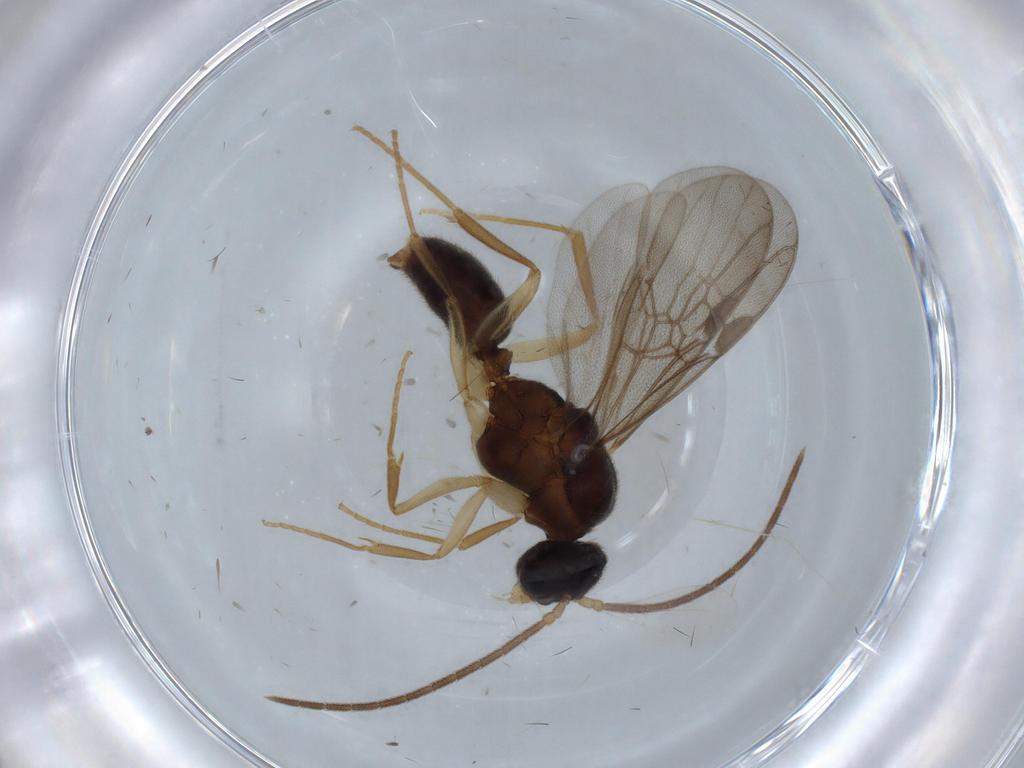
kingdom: Animalia
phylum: Arthropoda
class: Insecta
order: Hymenoptera
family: Formicidae
